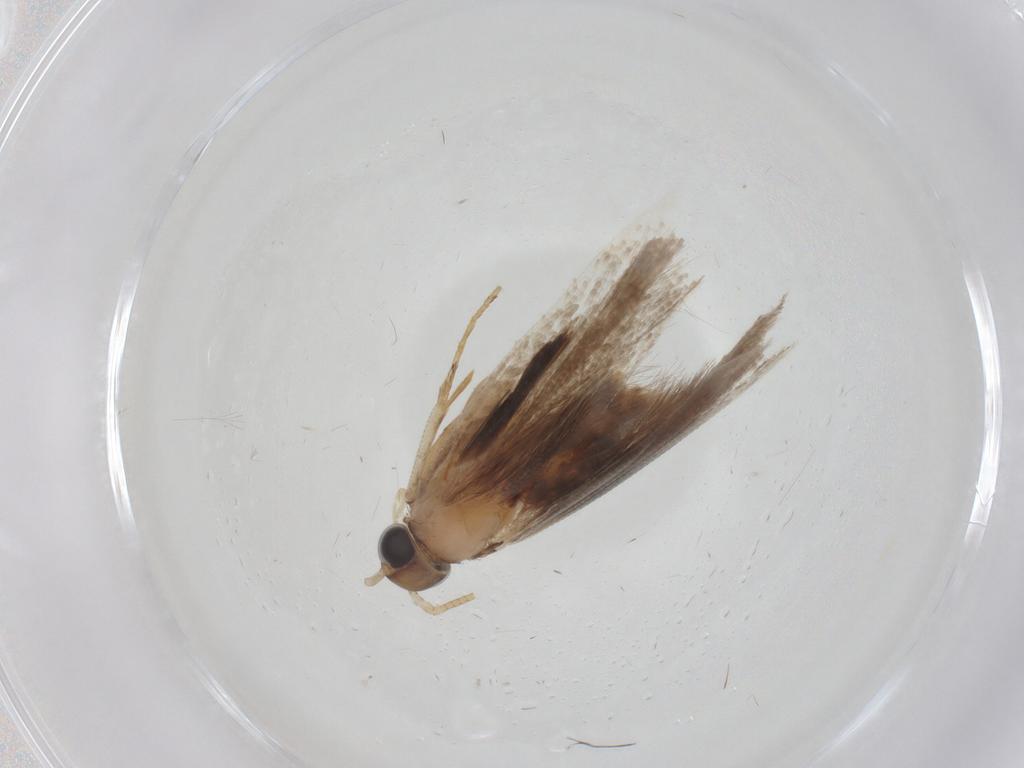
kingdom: Animalia
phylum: Arthropoda
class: Insecta
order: Lepidoptera
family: Gelechiidae
